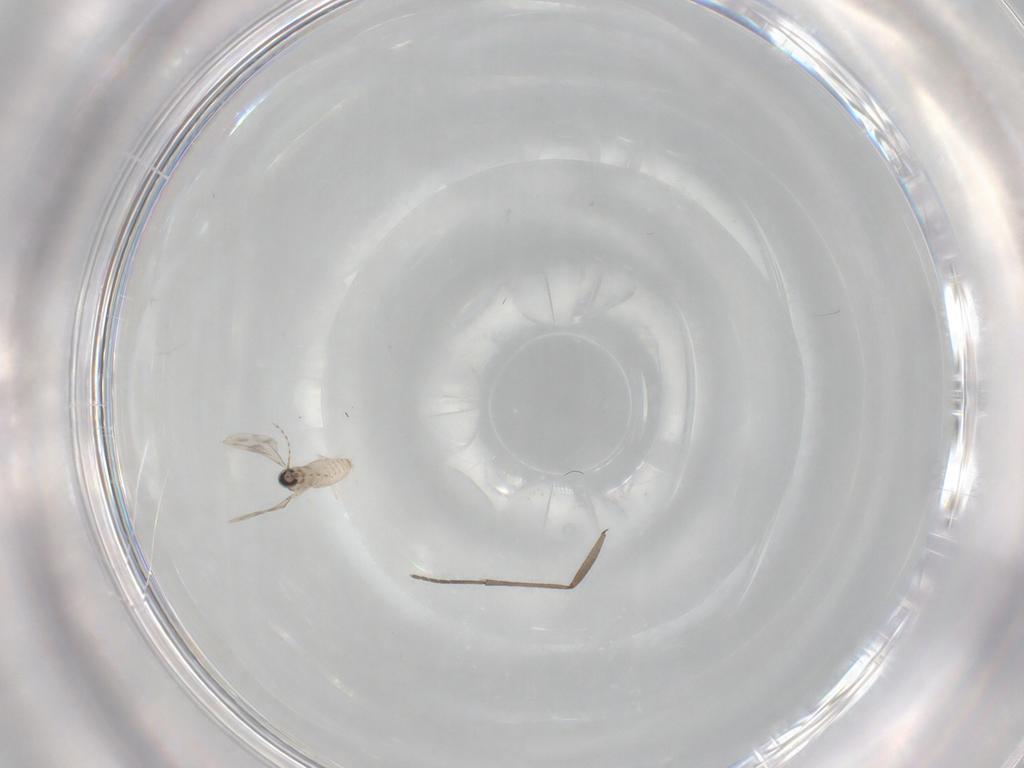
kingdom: Animalia
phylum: Arthropoda
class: Insecta
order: Diptera
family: Cecidomyiidae
